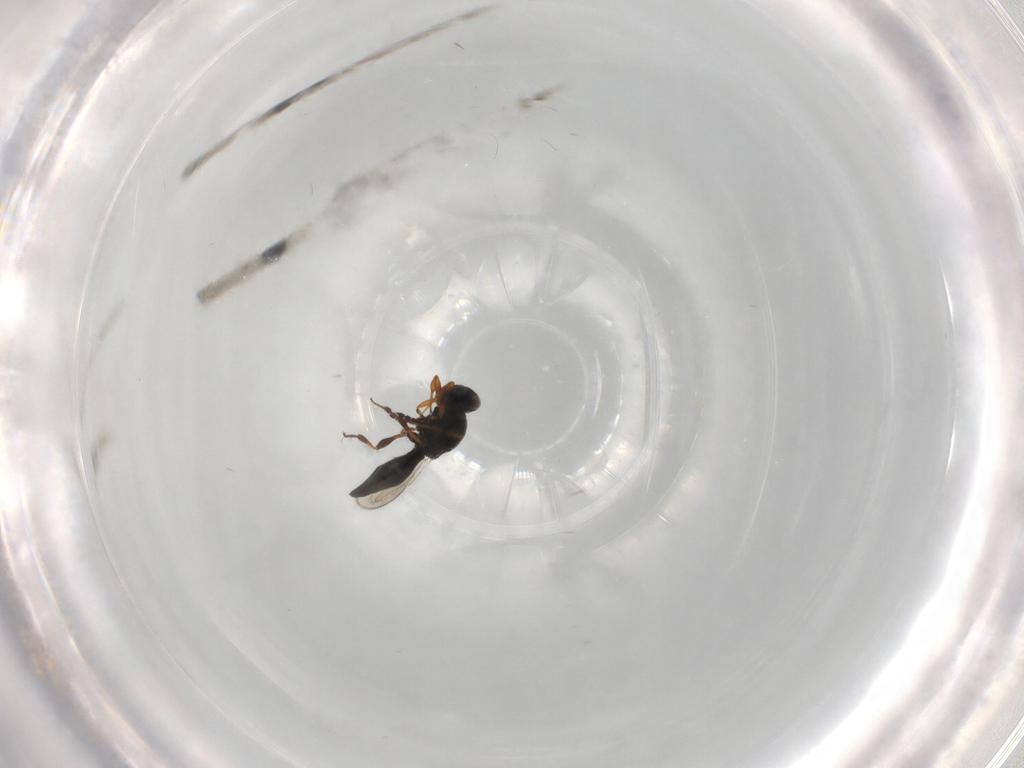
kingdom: Animalia
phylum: Arthropoda
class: Insecta
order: Hymenoptera
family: Platygastridae
